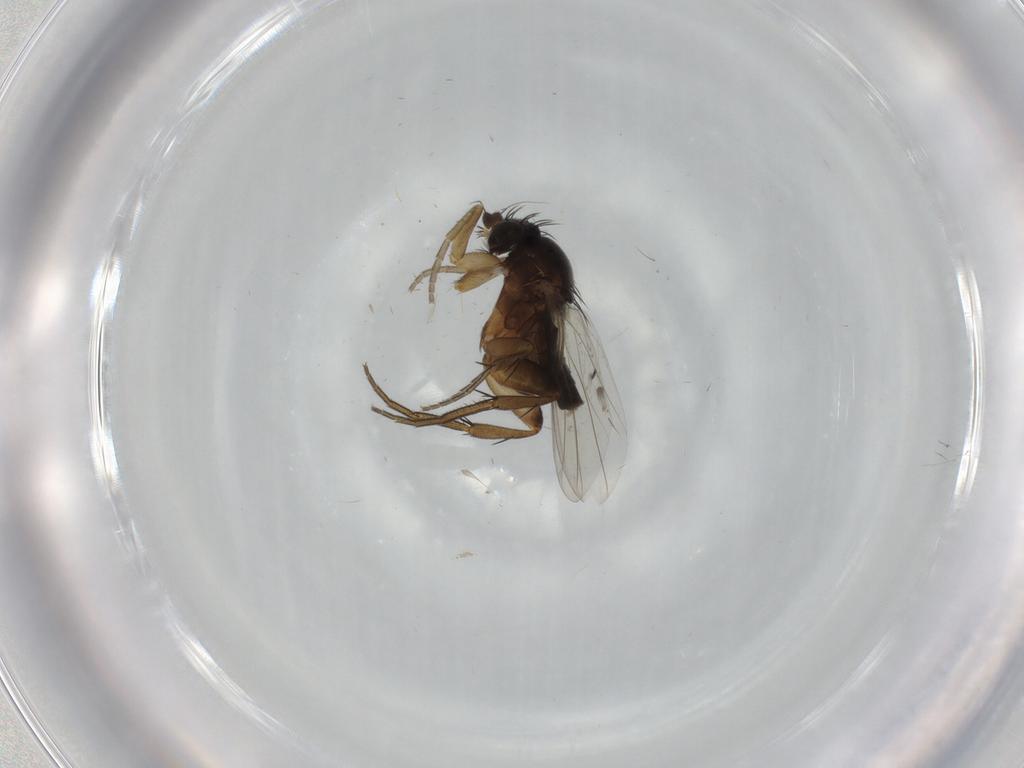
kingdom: Animalia
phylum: Arthropoda
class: Insecta
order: Diptera
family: Phoridae
